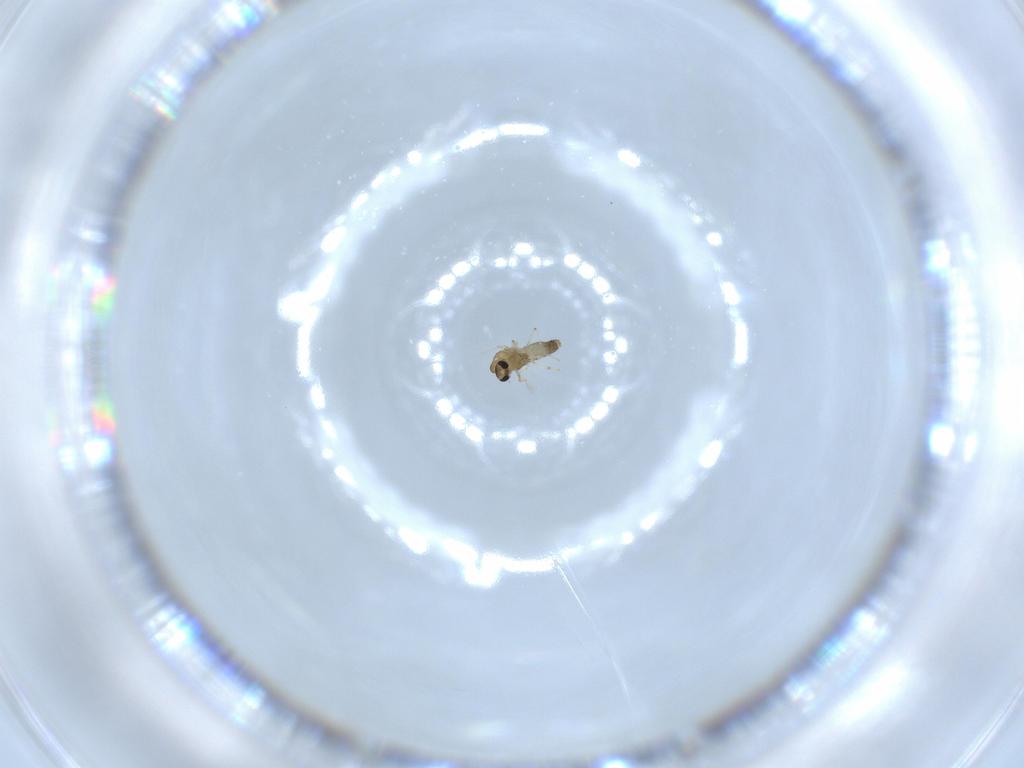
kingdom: Animalia
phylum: Arthropoda
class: Insecta
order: Diptera
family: Chironomidae
